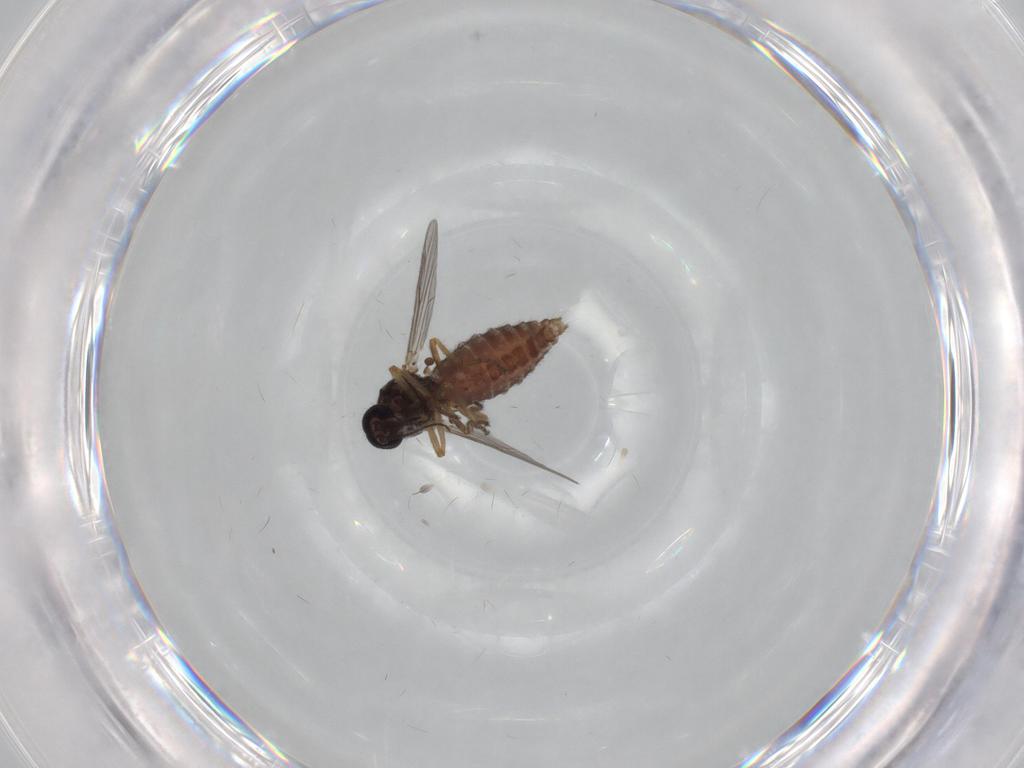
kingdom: Animalia
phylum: Arthropoda
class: Insecta
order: Diptera
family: Ceratopogonidae
